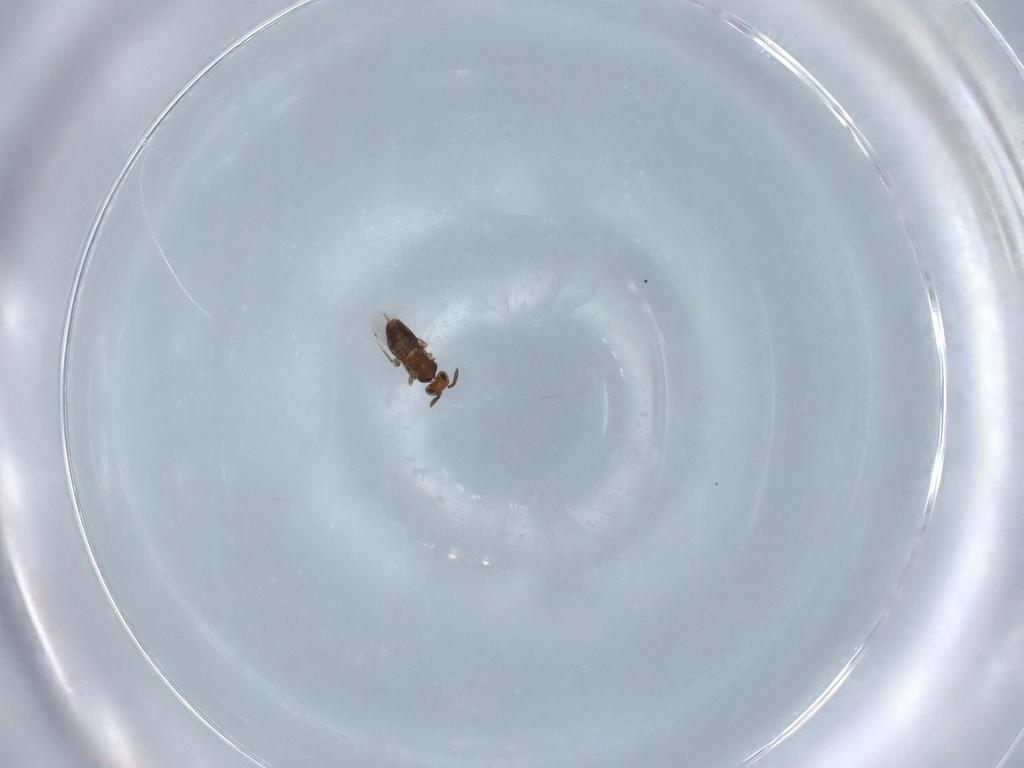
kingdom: Animalia
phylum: Arthropoda
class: Insecta
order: Hymenoptera
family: Encyrtidae
